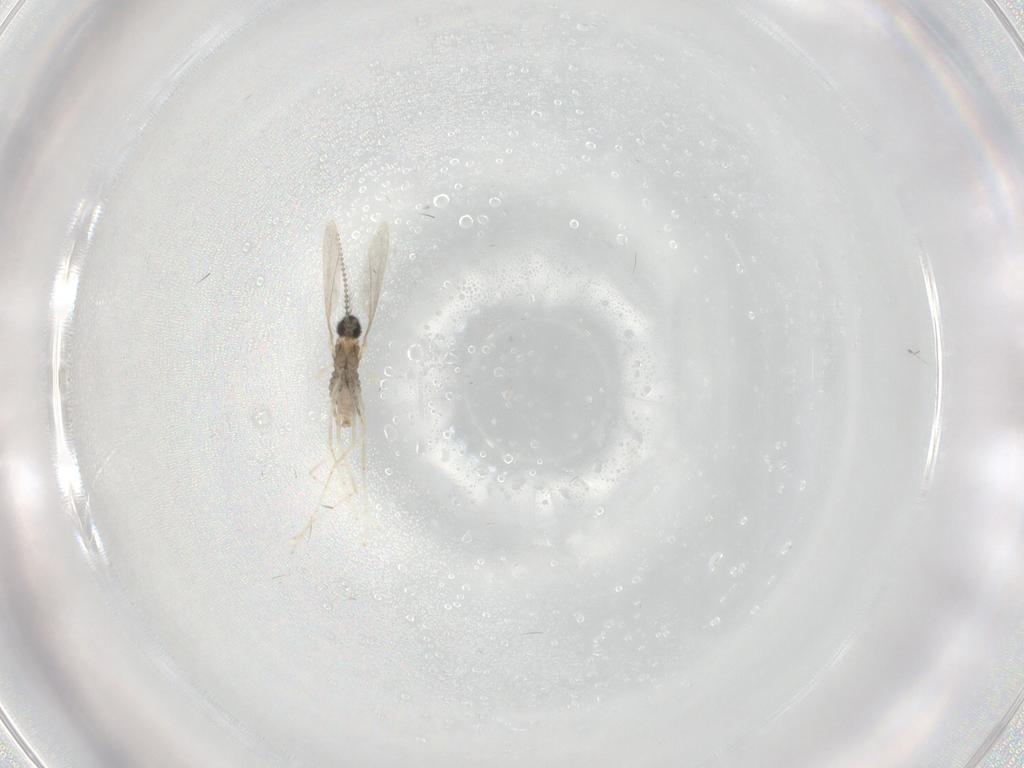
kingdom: Animalia
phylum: Arthropoda
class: Insecta
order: Diptera
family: Cecidomyiidae
